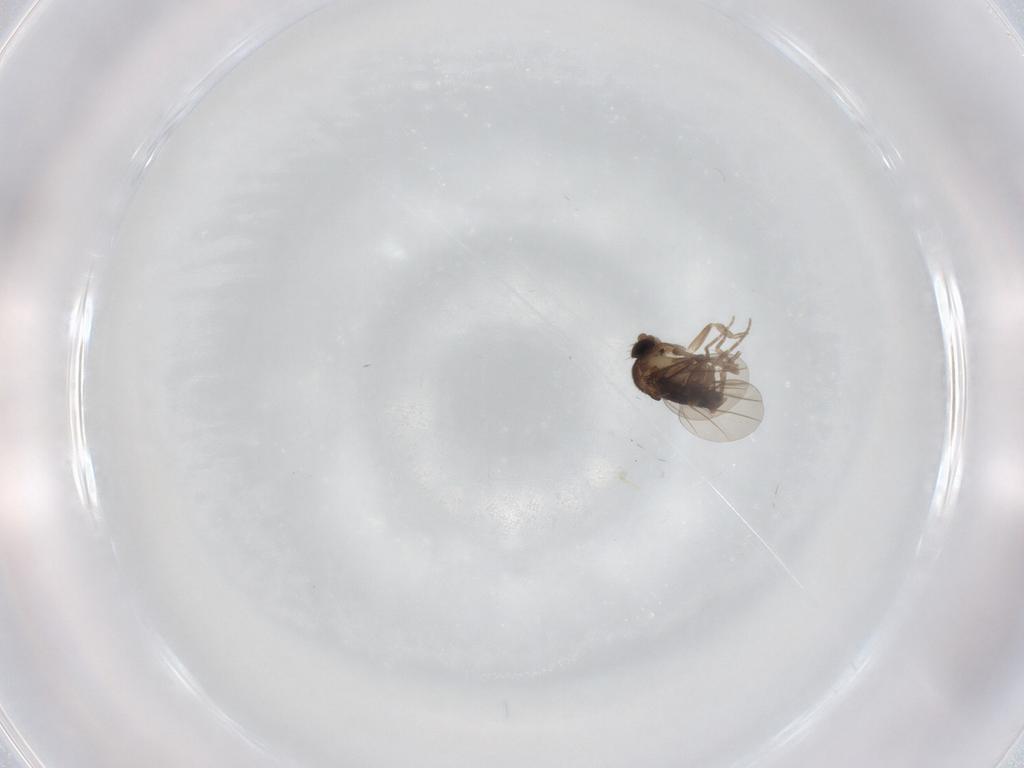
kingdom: Animalia
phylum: Arthropoda
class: Insecta
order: Diptera
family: Phoridae
